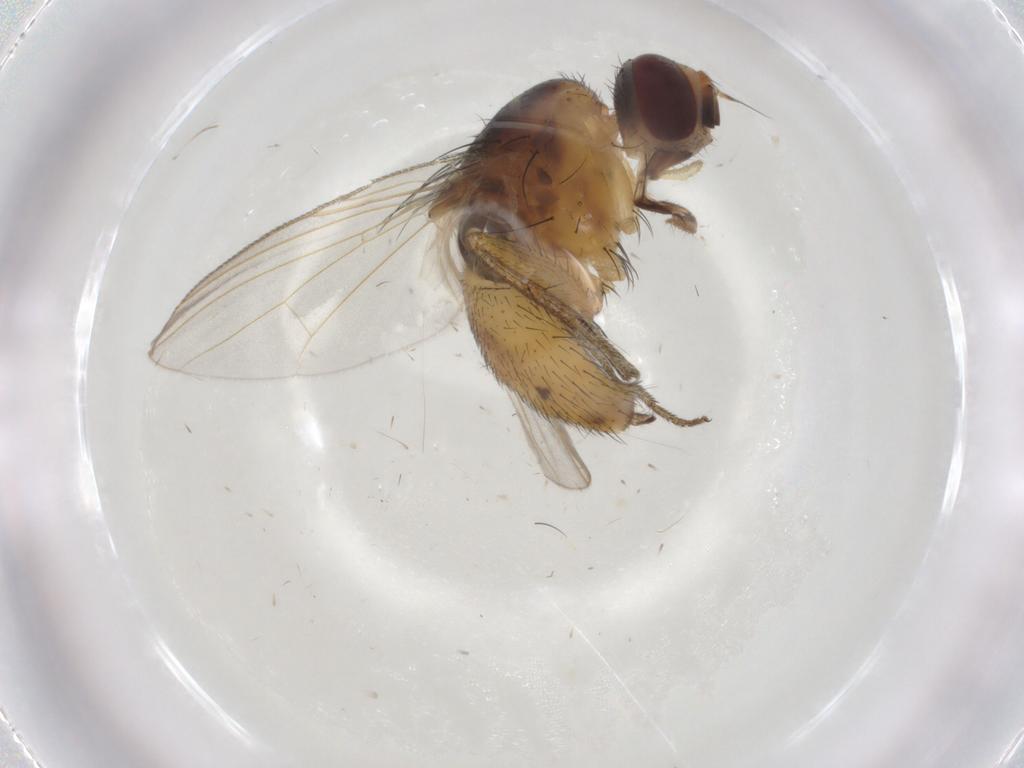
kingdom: Animalia
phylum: Arthropoda
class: Insecta
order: Diptera
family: Muscidae
